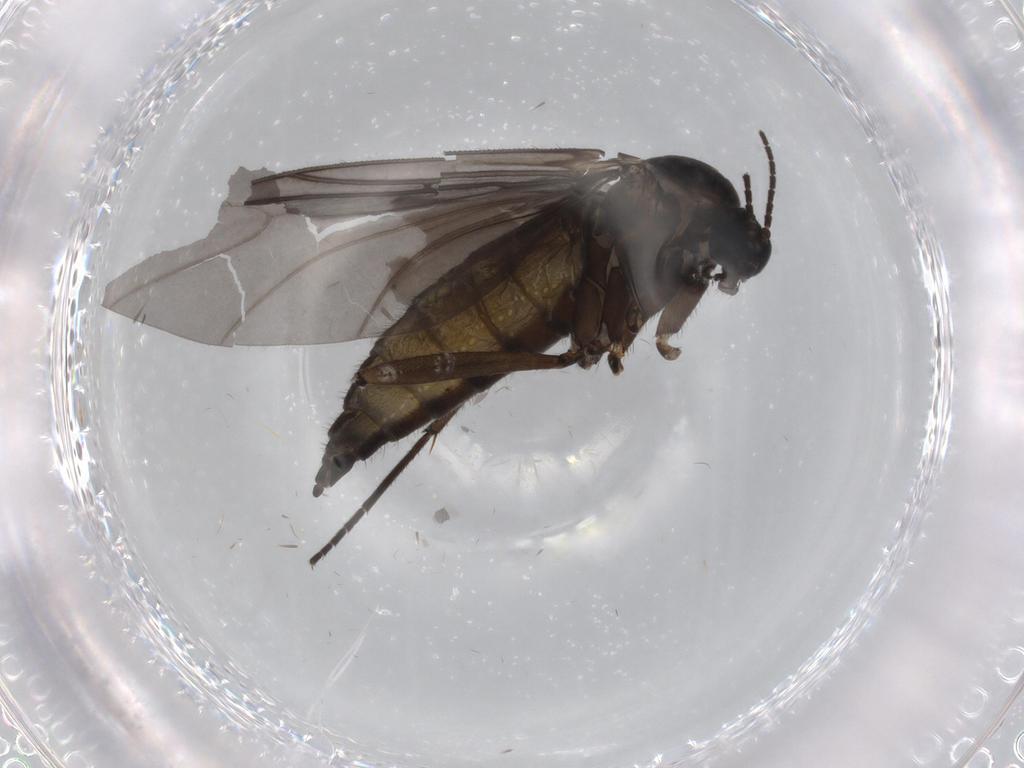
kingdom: Animalia
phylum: Arthropoda
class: Insecta
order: Diptera
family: Sciaridae
